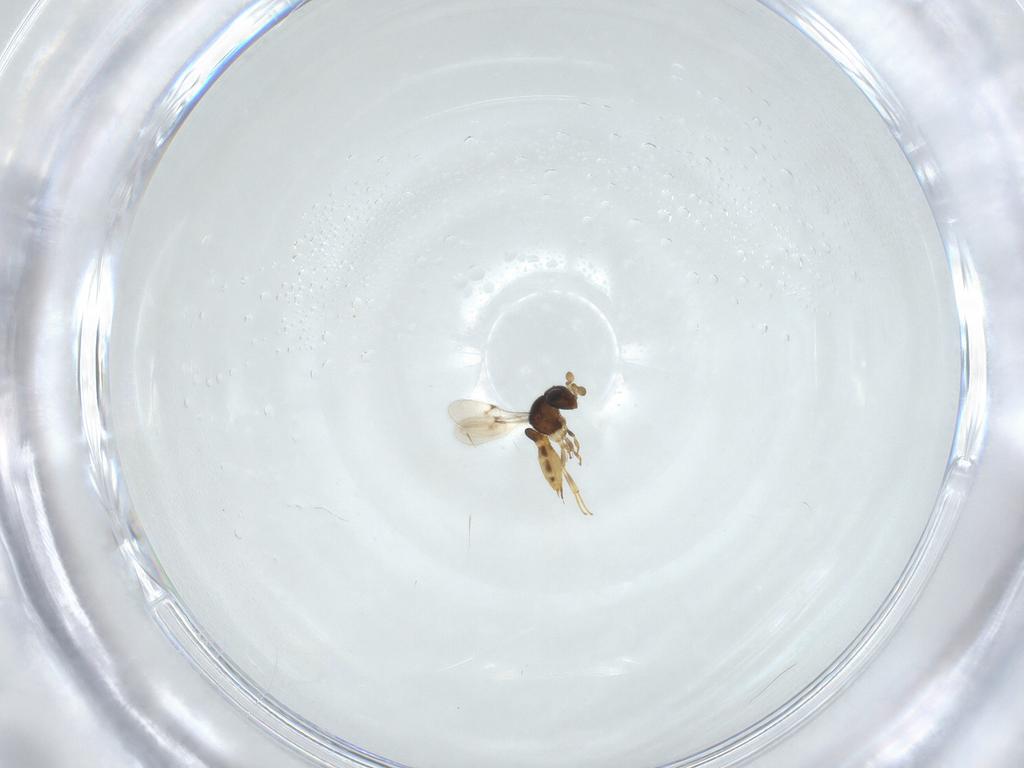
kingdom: Animalia
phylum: Arthropoda
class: Insecta
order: Hymenoptera
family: Scelionidae
